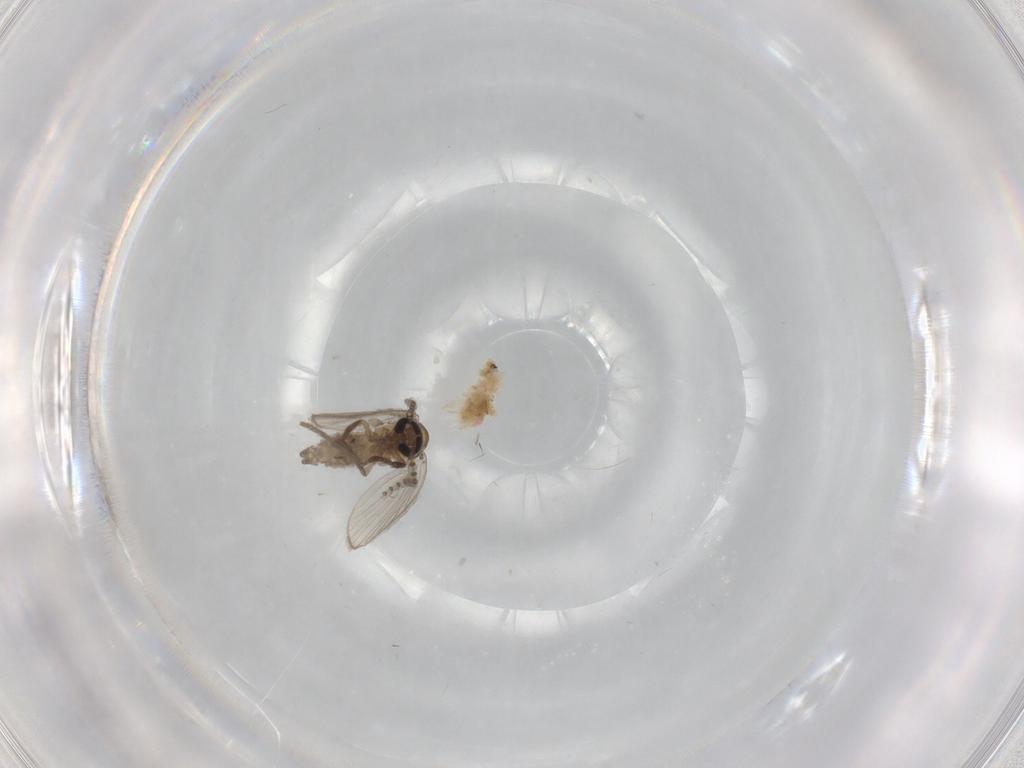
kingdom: Animalia
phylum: Arthropoda
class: Insecta
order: Diptera
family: Psychodidae
